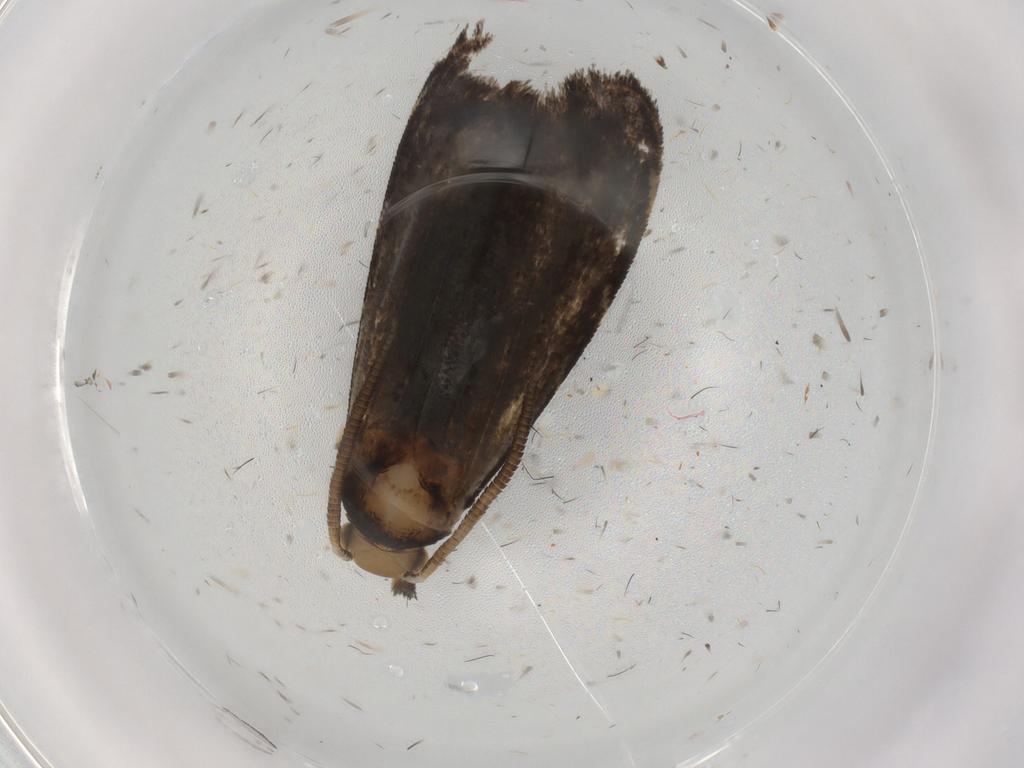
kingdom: Animalia
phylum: Arthropoda
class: Insecta
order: Lepidoptera
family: Dryadaulidae
